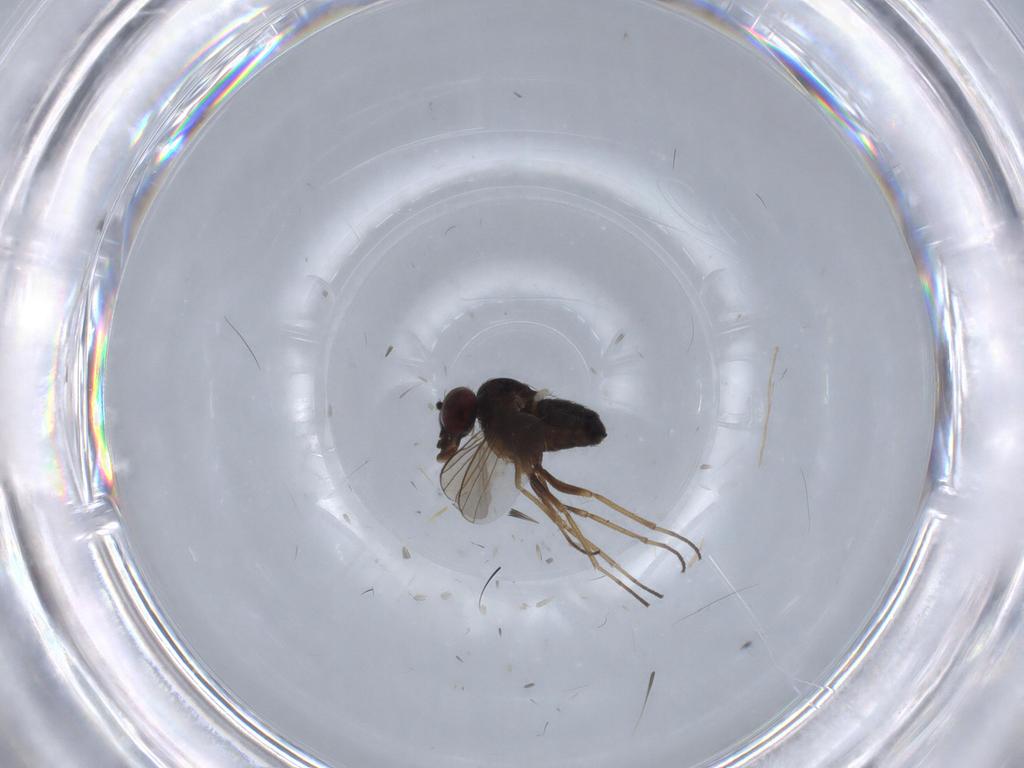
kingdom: Animalia
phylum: Arthropoda
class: Insecta
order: Diptera
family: Dolichopodidae
